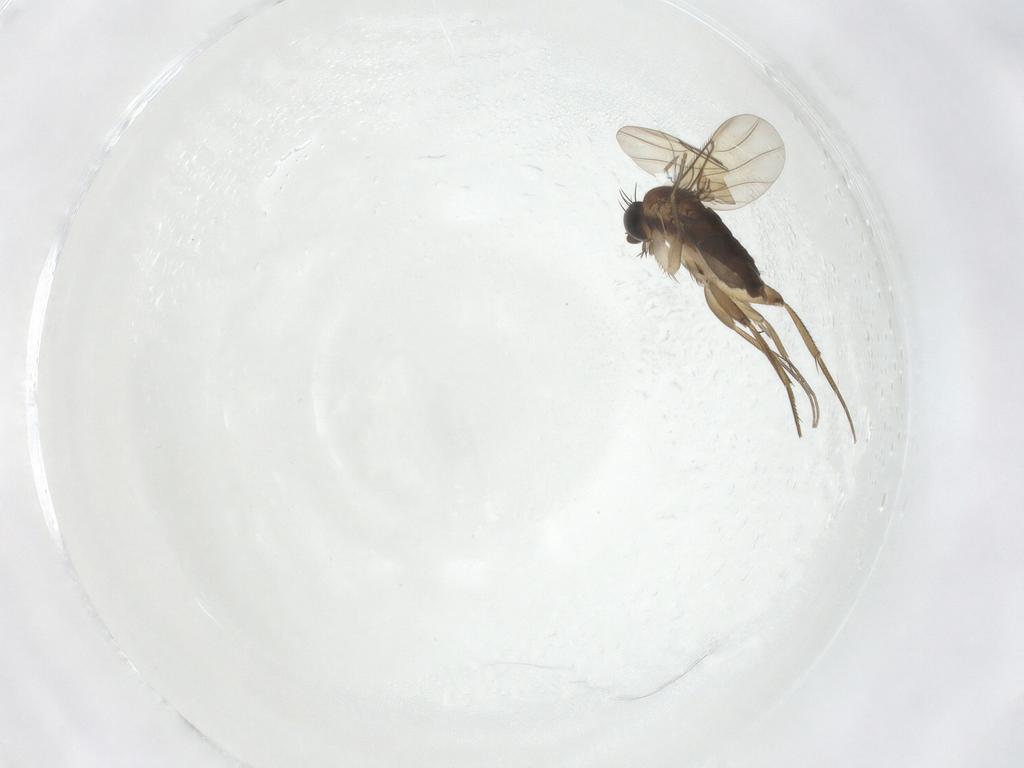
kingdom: Animalia
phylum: Arthropoda
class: Insecta
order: Diptera
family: Phoridae
